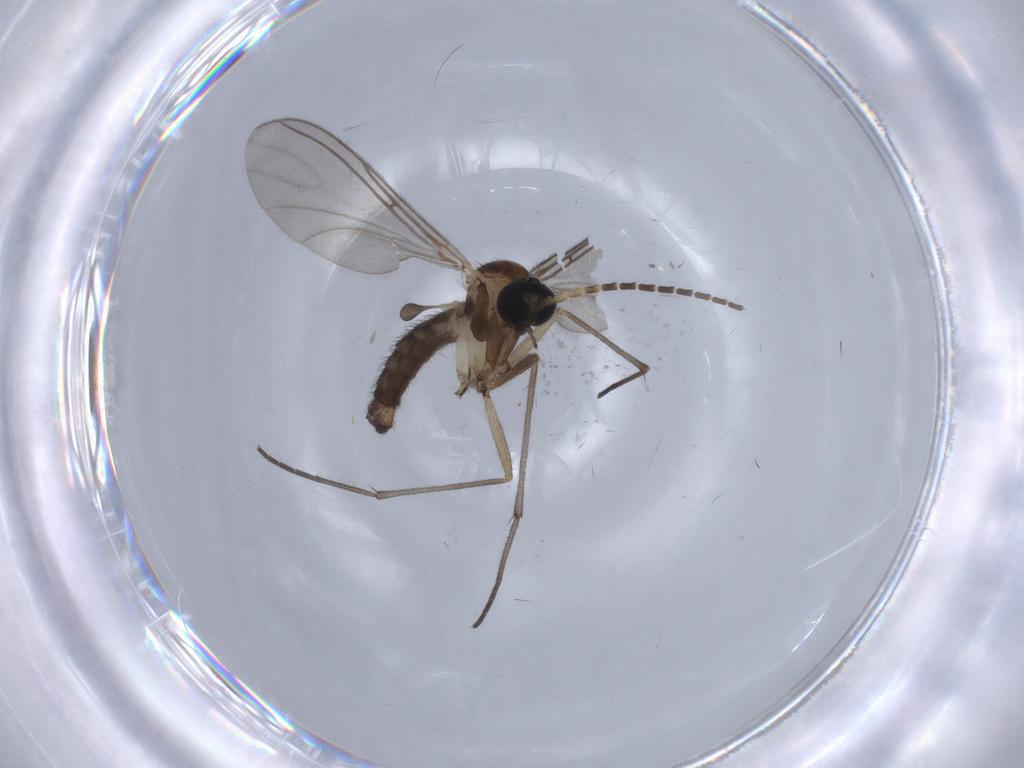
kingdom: Animalia
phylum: Arthropoda
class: Insecta
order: Diptera
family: Sciaridae
